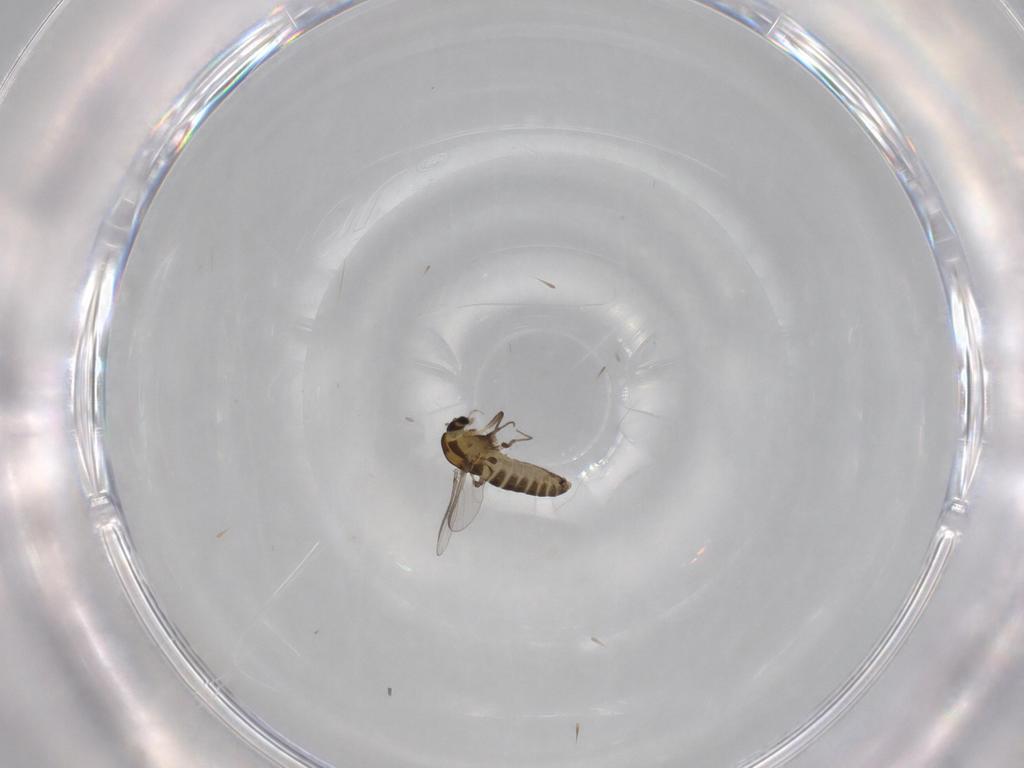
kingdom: Animalia
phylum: Arthropoda
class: Insecta
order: Diptera
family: Chironomidae
